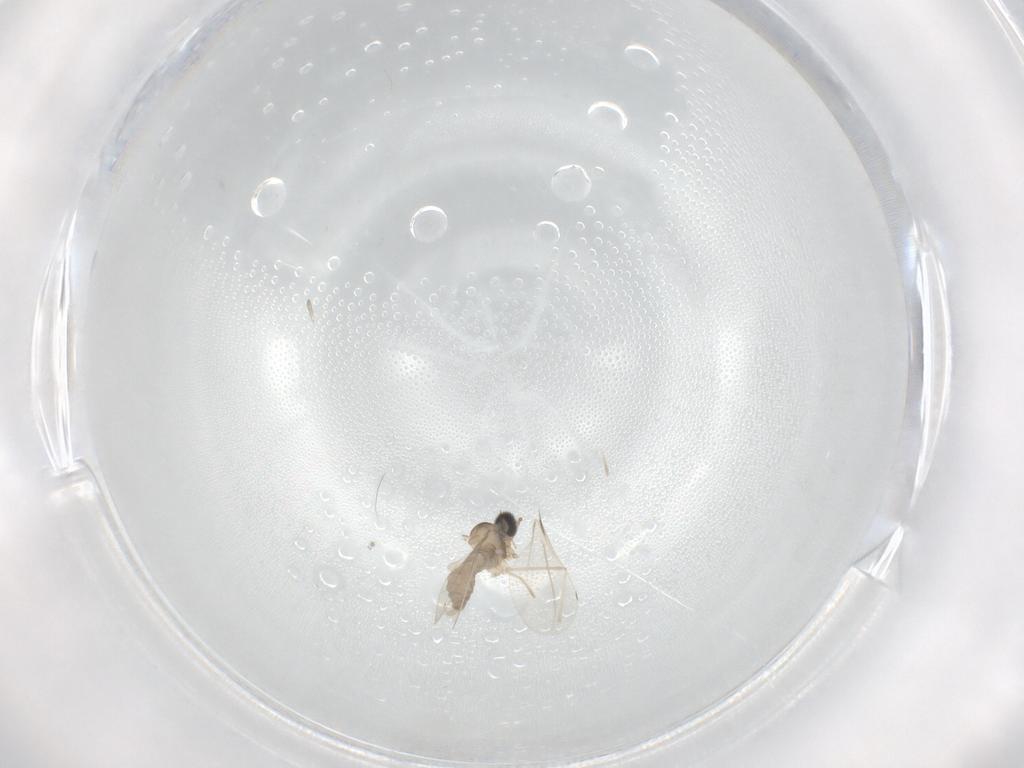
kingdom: Animalia
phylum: Arthropoda
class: Insecta
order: Diptera
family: Cecidomyiidae
